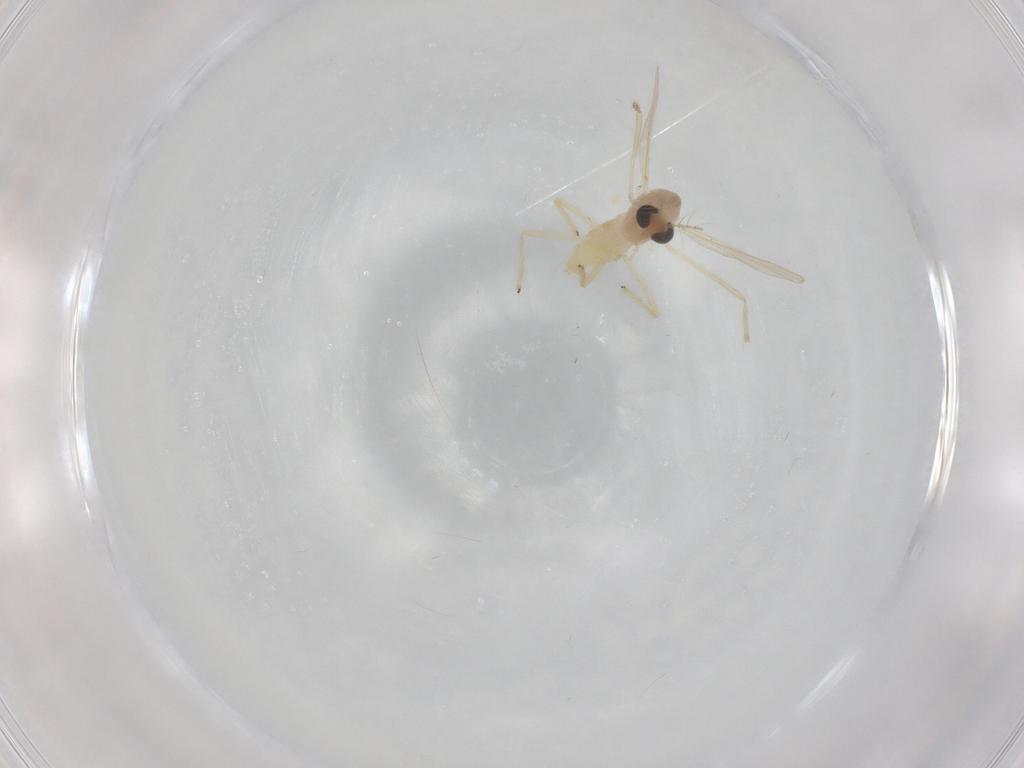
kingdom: Animalia
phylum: Arthropoda
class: Insecta
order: Diptera
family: Chironomidae
